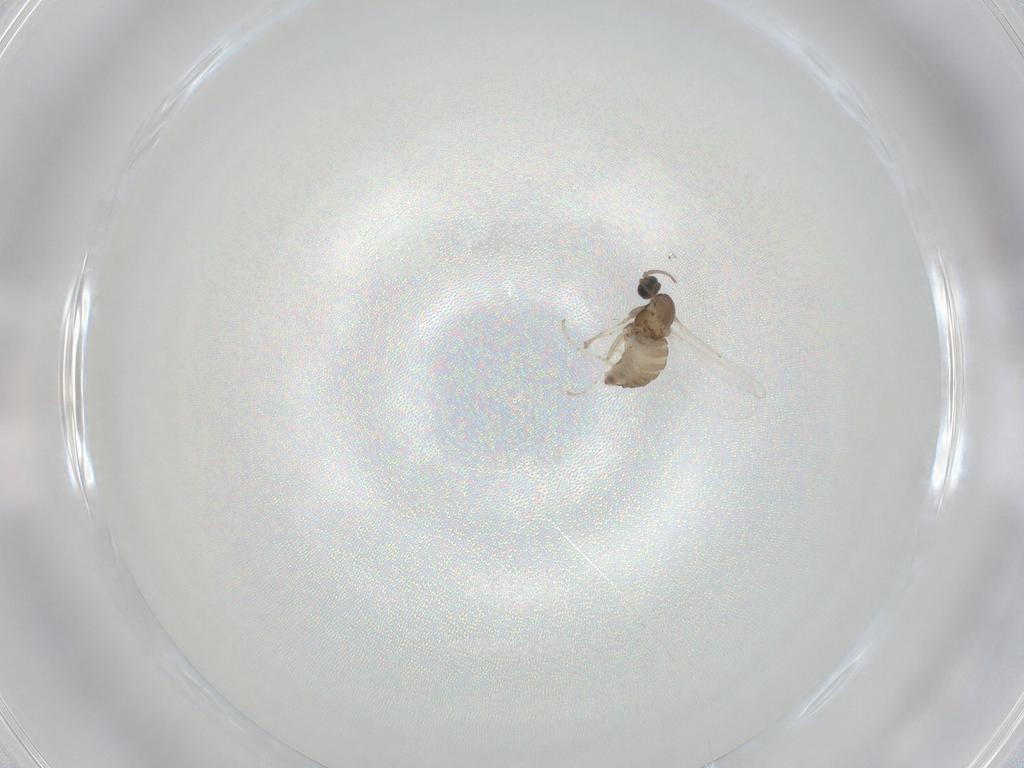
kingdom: Animalia
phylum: Arthropoda
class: Insecta
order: Diptera
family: Cecidomyiidae
